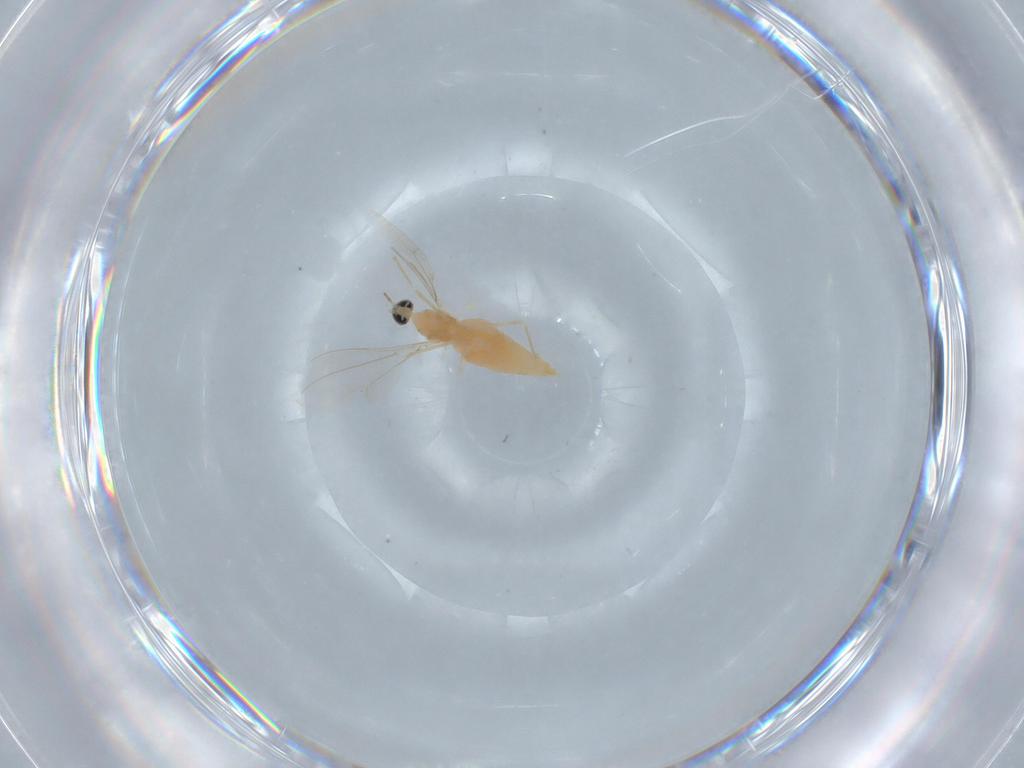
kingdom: Animalia
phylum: Arthropoda
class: Insecta
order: Diptera
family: Cecidomyiidae
